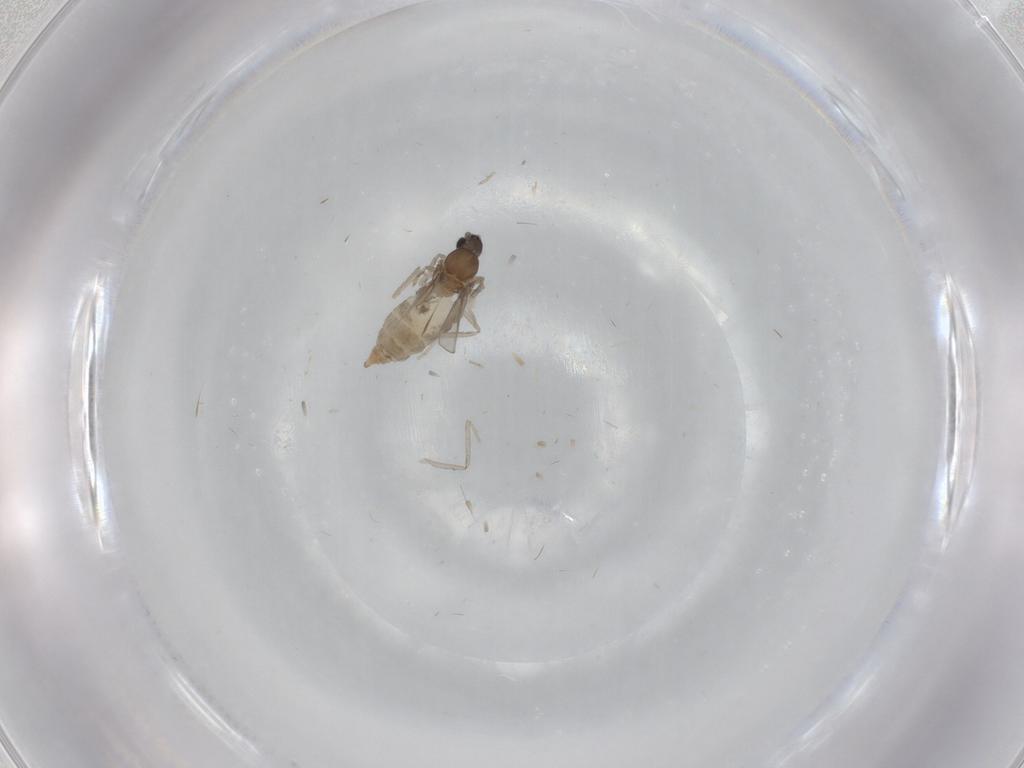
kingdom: Animalia
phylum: Arthropoda
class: Insecta
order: Diptera
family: Cecidomyiidae
